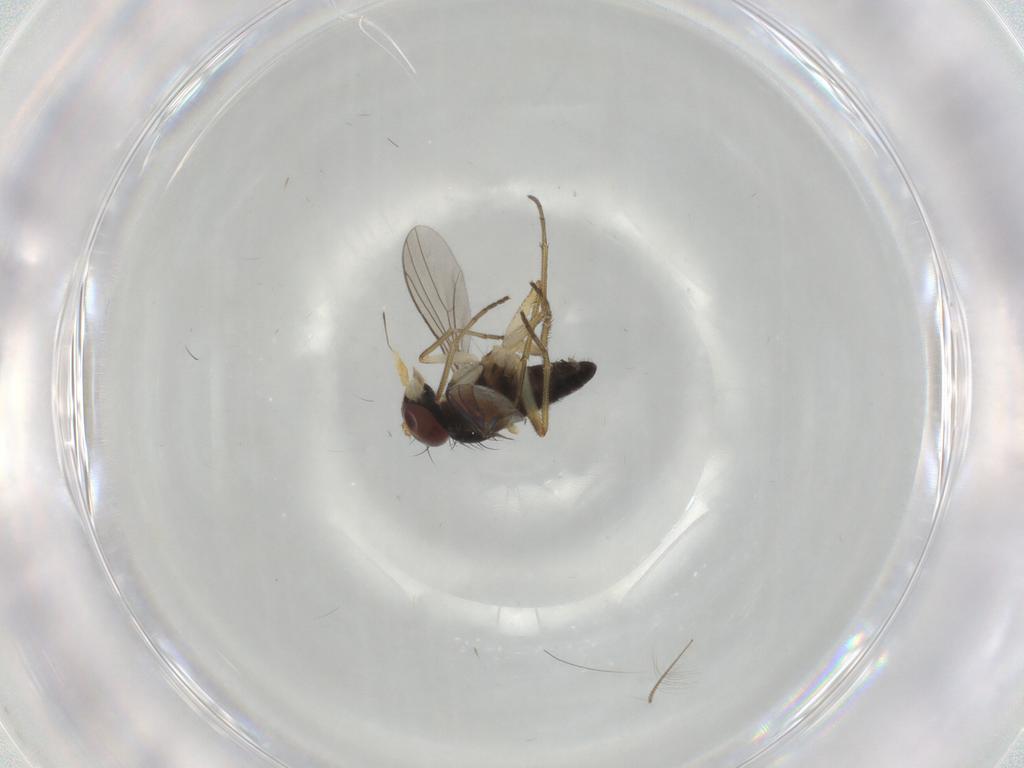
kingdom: Animalia
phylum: Arthropoda
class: Insecta
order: Diptera
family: Dolichopodidae
